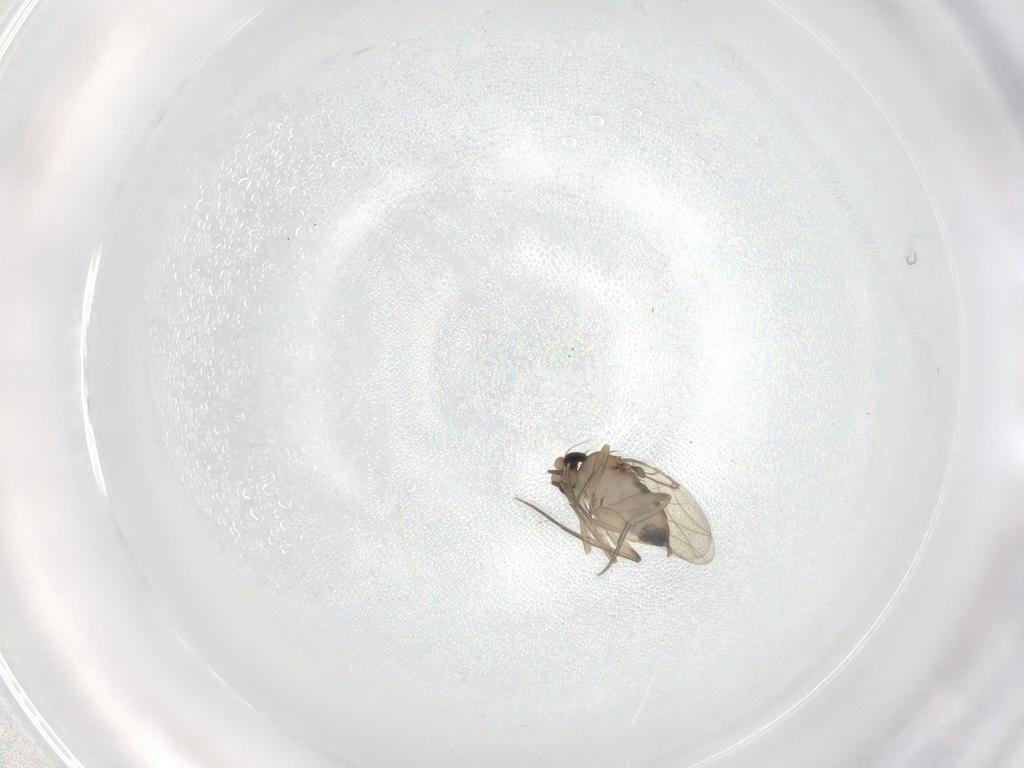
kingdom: Animalia
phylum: Arthropoda
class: Insecta
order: Diptera
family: Phoridae
